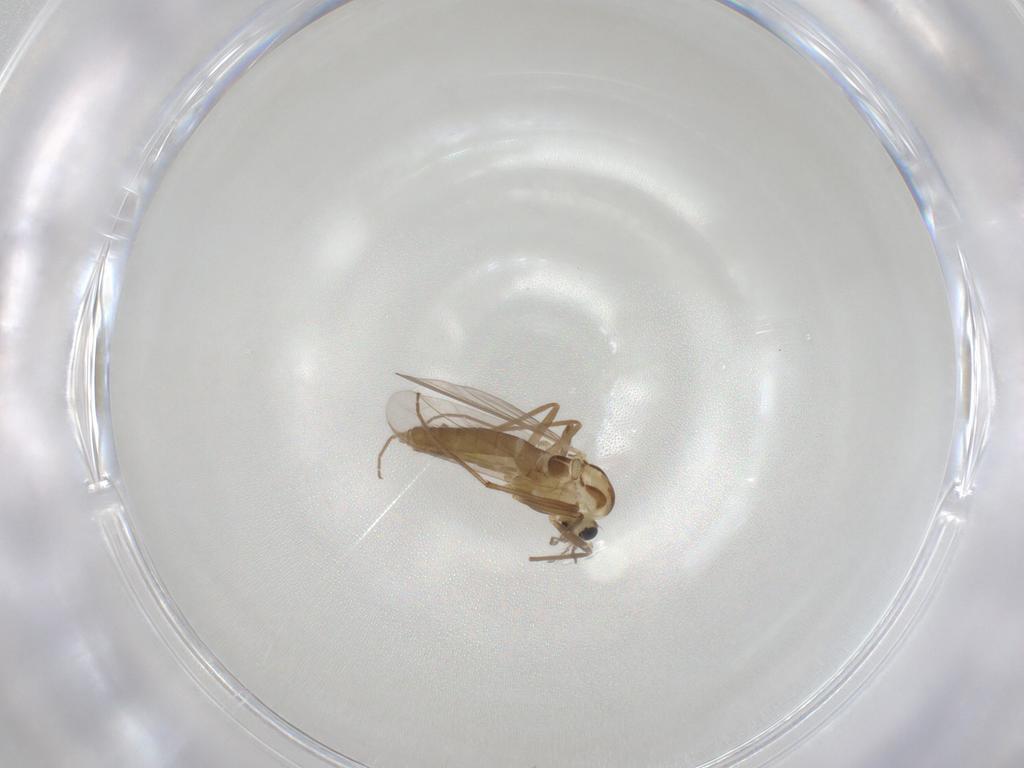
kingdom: Animalia
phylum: Arthropoda
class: Insecta
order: Diptera
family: Chironomidae
